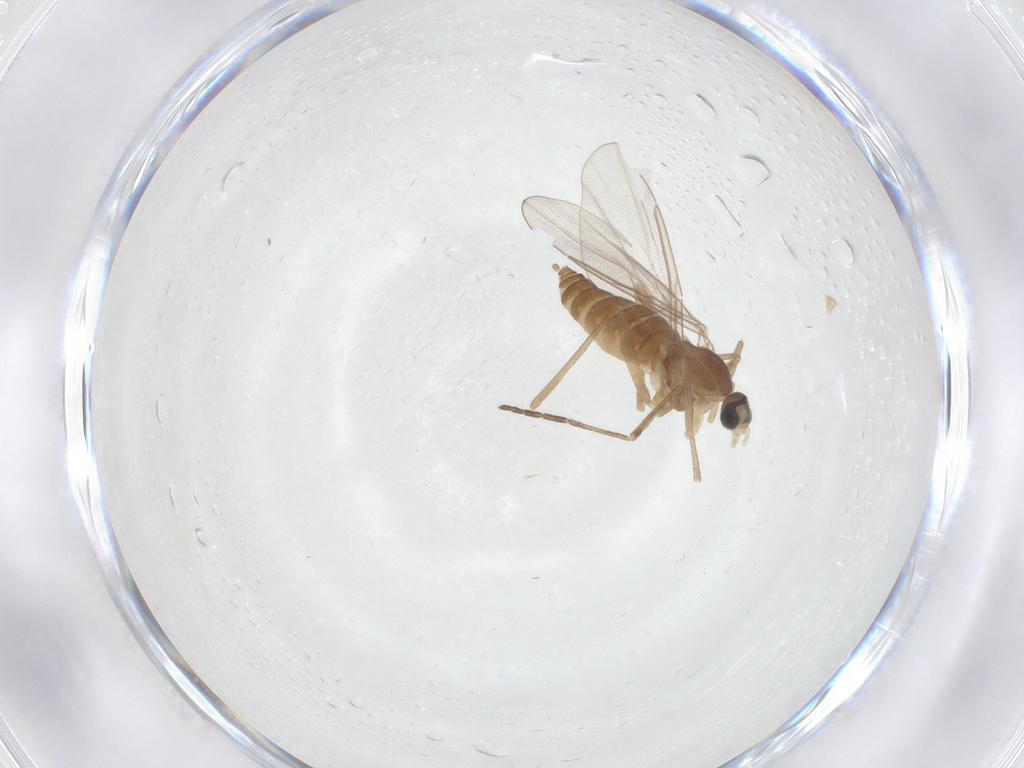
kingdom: Animalia
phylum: Arthropoda
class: Insecta
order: Diptera
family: Cecidomyiidae
